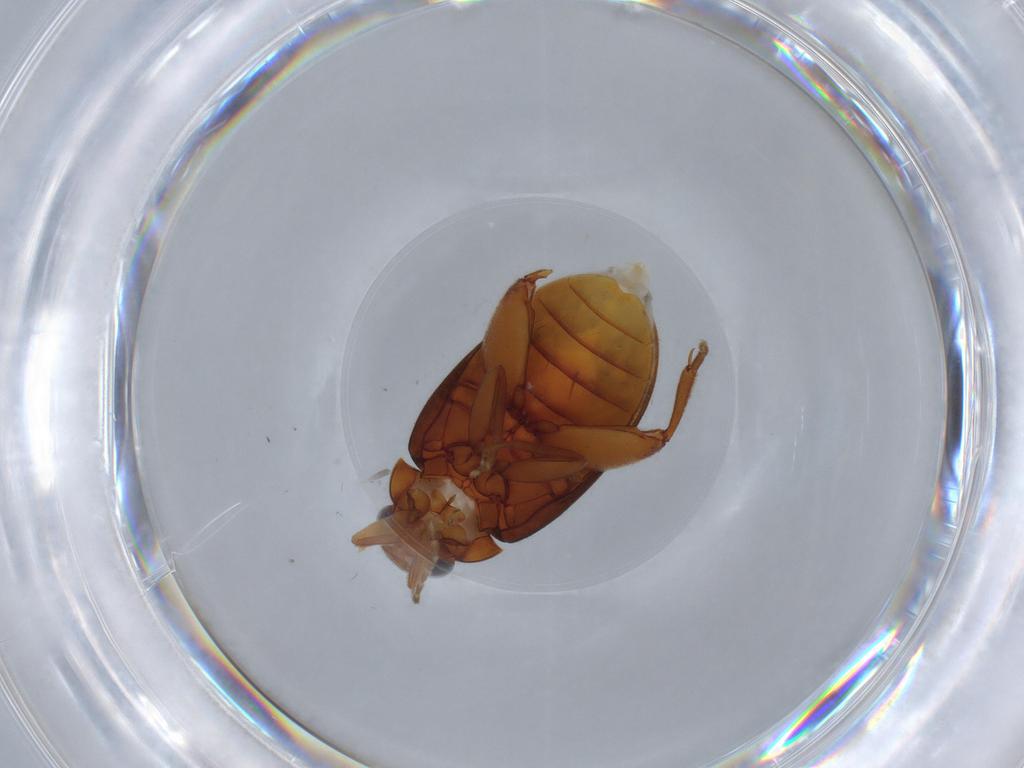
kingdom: Animalia
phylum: Arthropoda
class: Insecta
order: Coleoptera
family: Scirtidae
